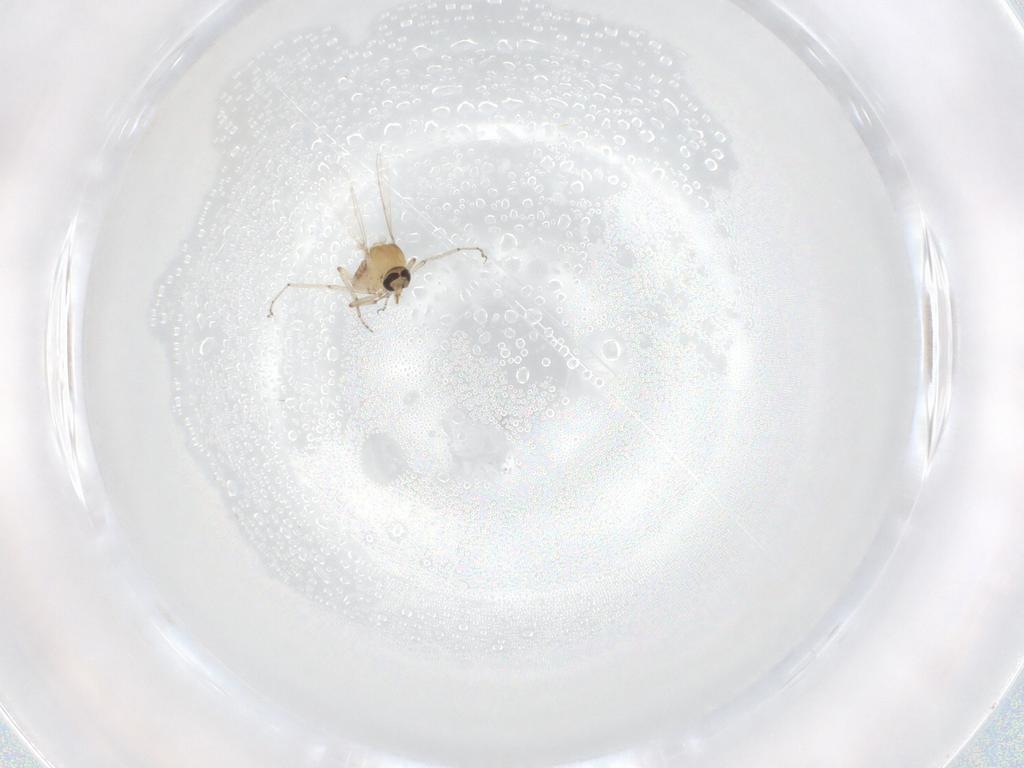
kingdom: Animalia
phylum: Arthropoda
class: Insecta
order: Diptera
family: Ceratopogonidae
